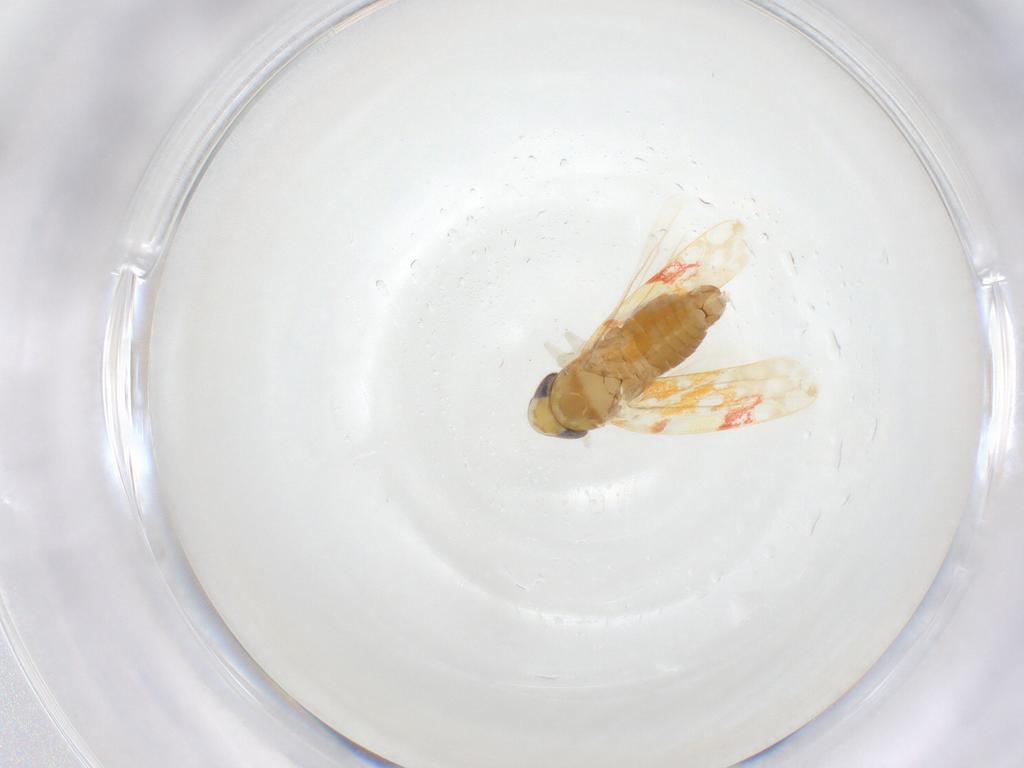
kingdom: Animalia
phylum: Arthropoda
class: Insecta
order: Hemiptera
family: Cicadellidae
